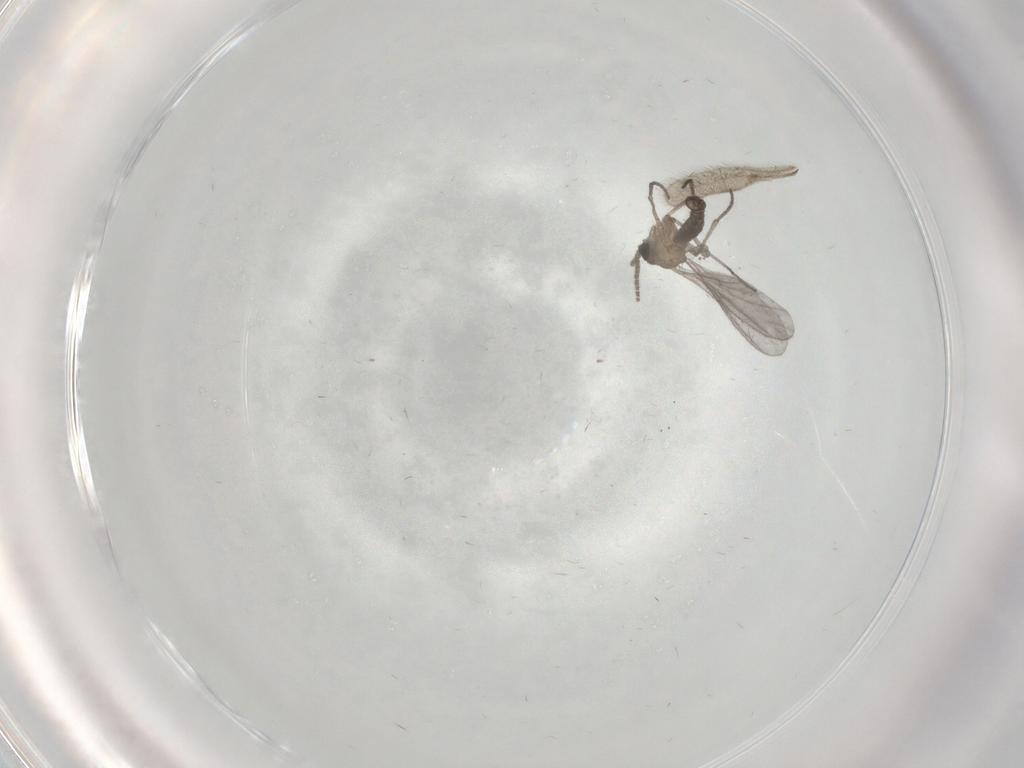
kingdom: Animalia
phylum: Arthropoda
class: Insecta
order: Diptera
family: Sciaridae
